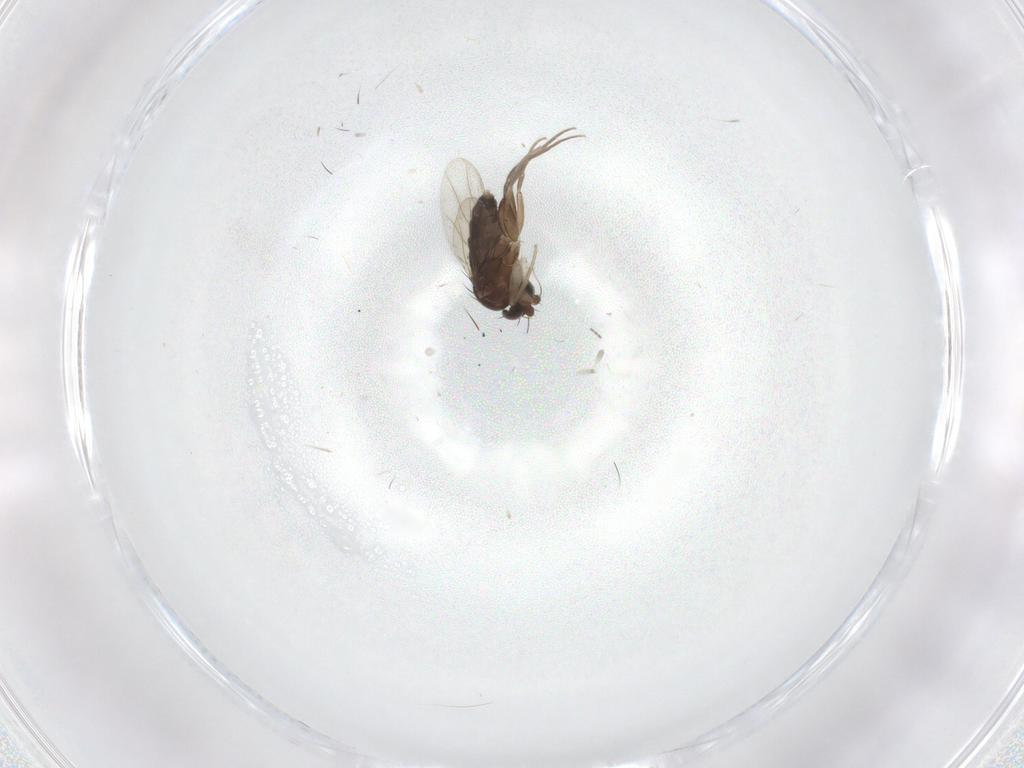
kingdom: Animalia
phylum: Arthropoda
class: Insecta
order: Diptera
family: Phoridae
